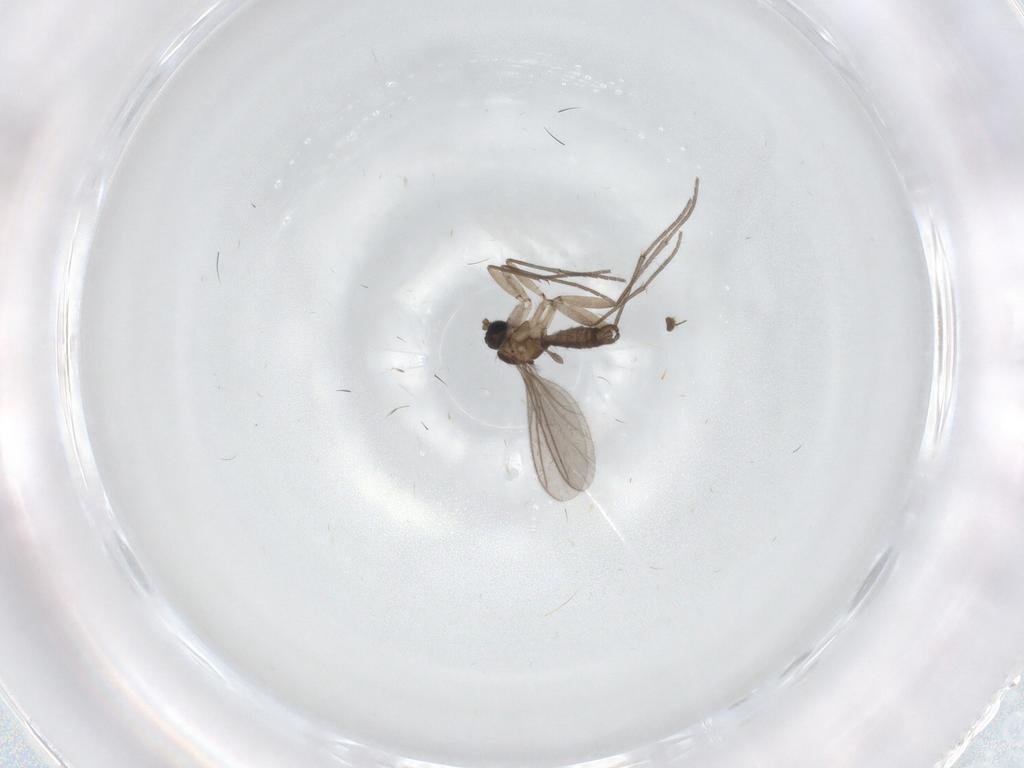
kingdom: Animalia
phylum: Arthropoda
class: Insecta
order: Diptera
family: Sciaridae
